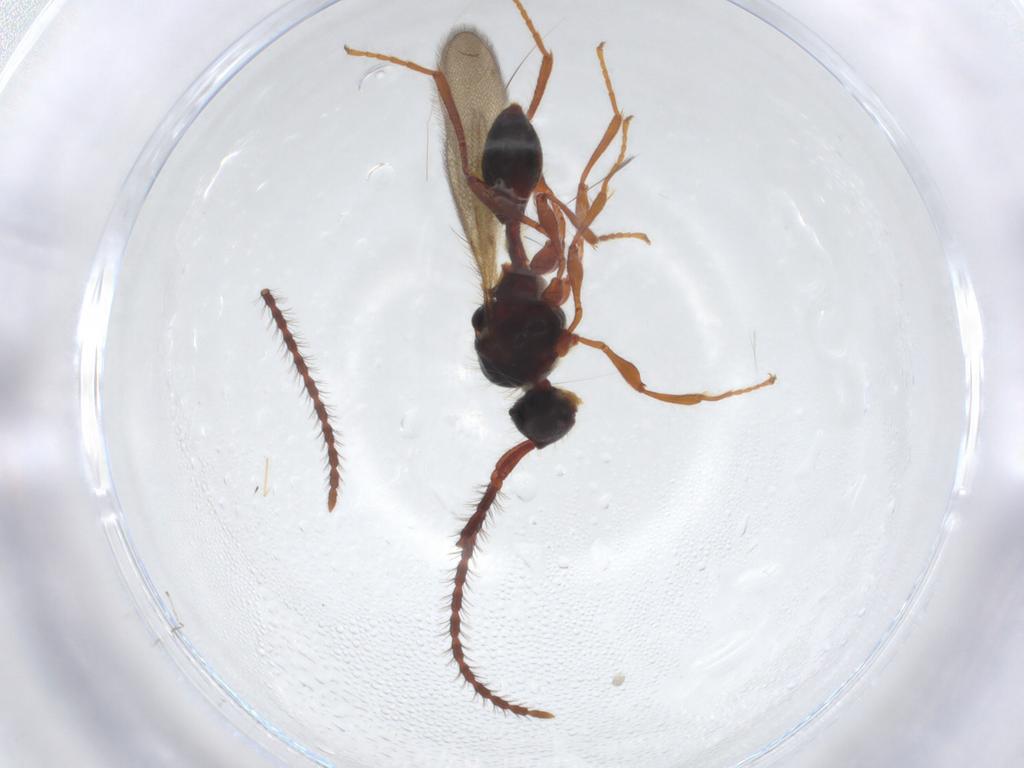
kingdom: Animalia
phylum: Arthropoda
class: Insecta
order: Hymenoptera
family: Diapriidae
